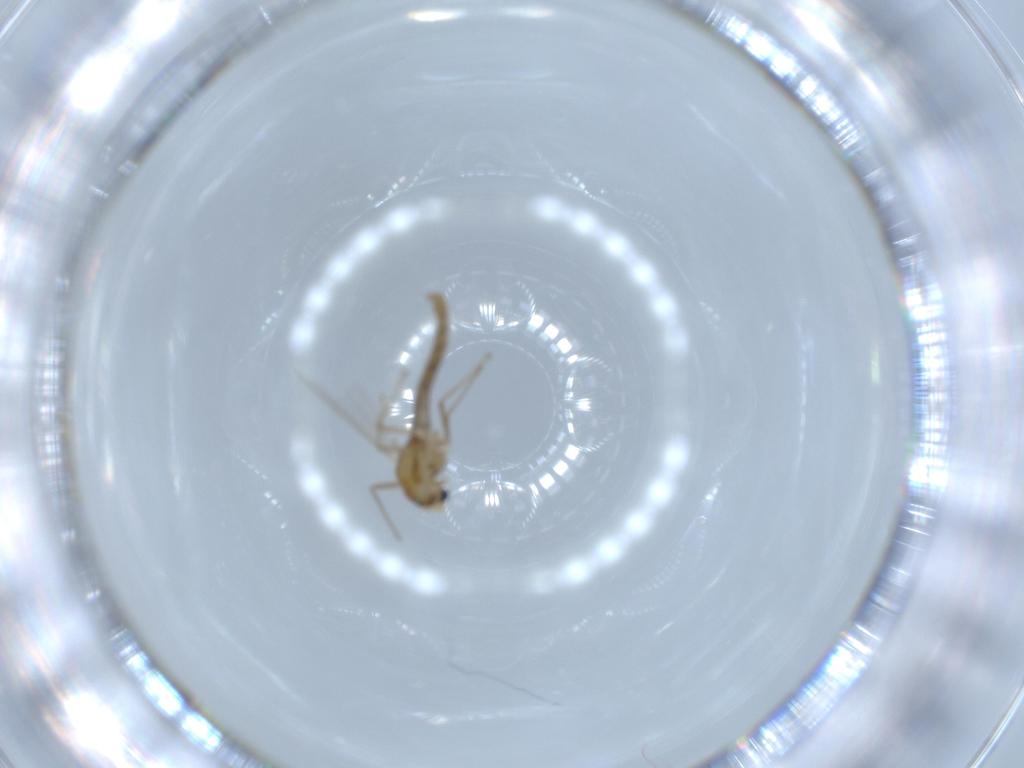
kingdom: Animalia
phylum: Arthropoda
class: Insecta
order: Diptera
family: Chironomidae
